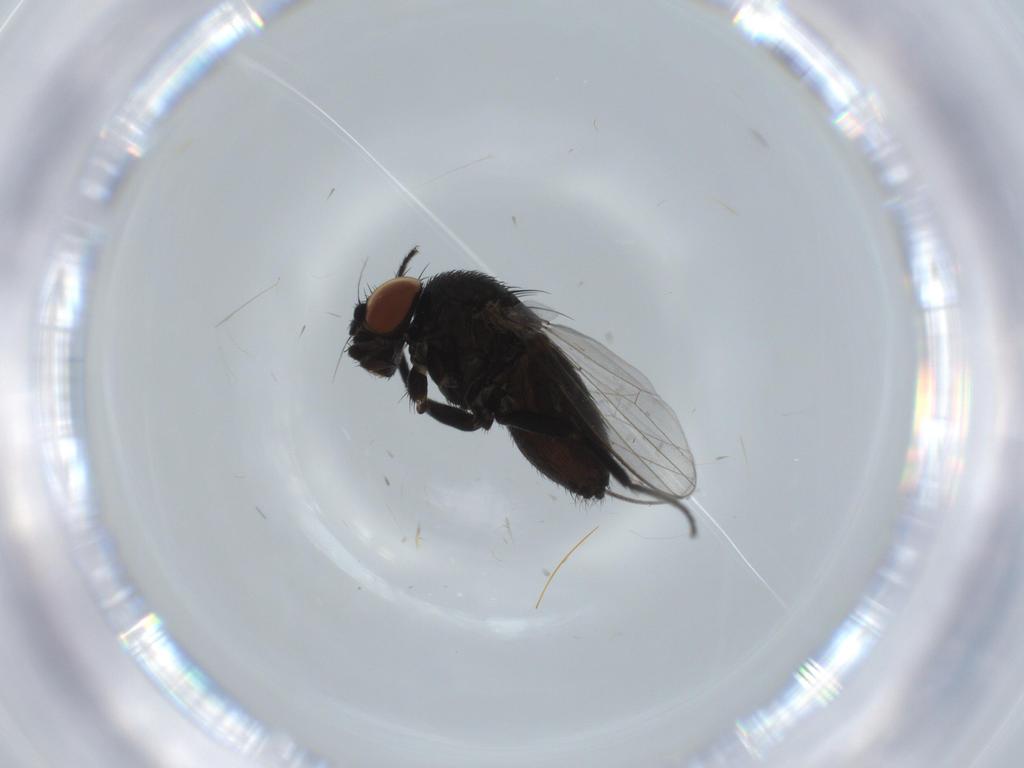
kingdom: Animalia
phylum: Arthropoda
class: Insecta
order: Diptera
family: Milichiidae
